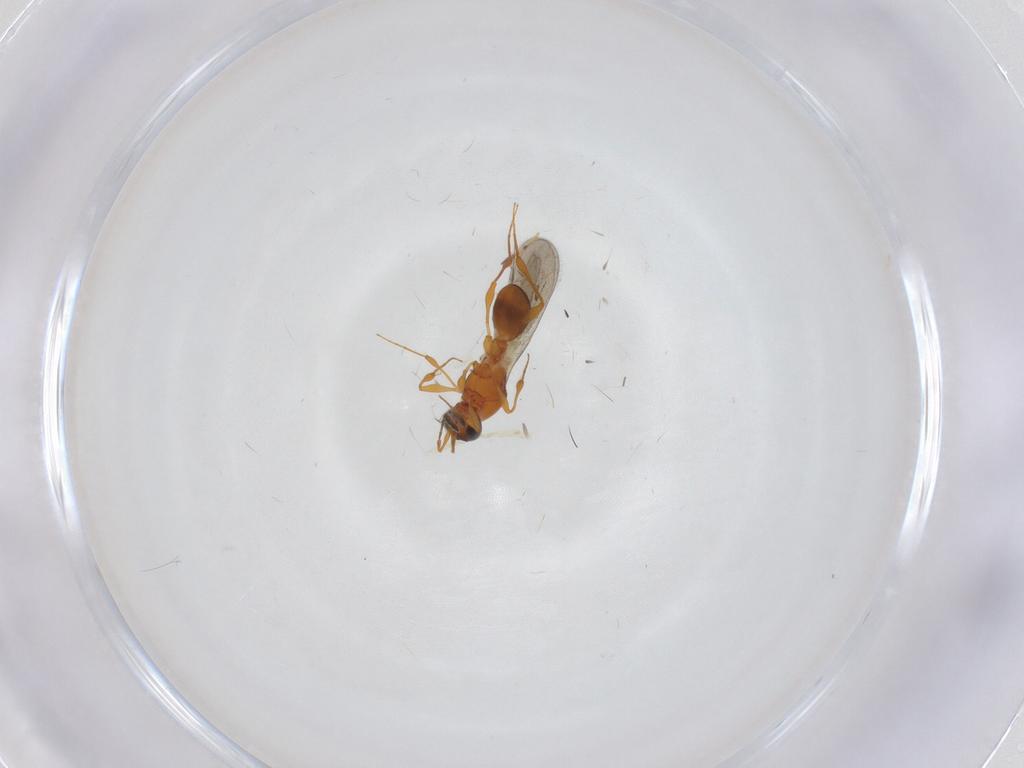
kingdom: Animalia
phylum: Arthropoda
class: Insecta
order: Hymenoptera
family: Platygastridae
